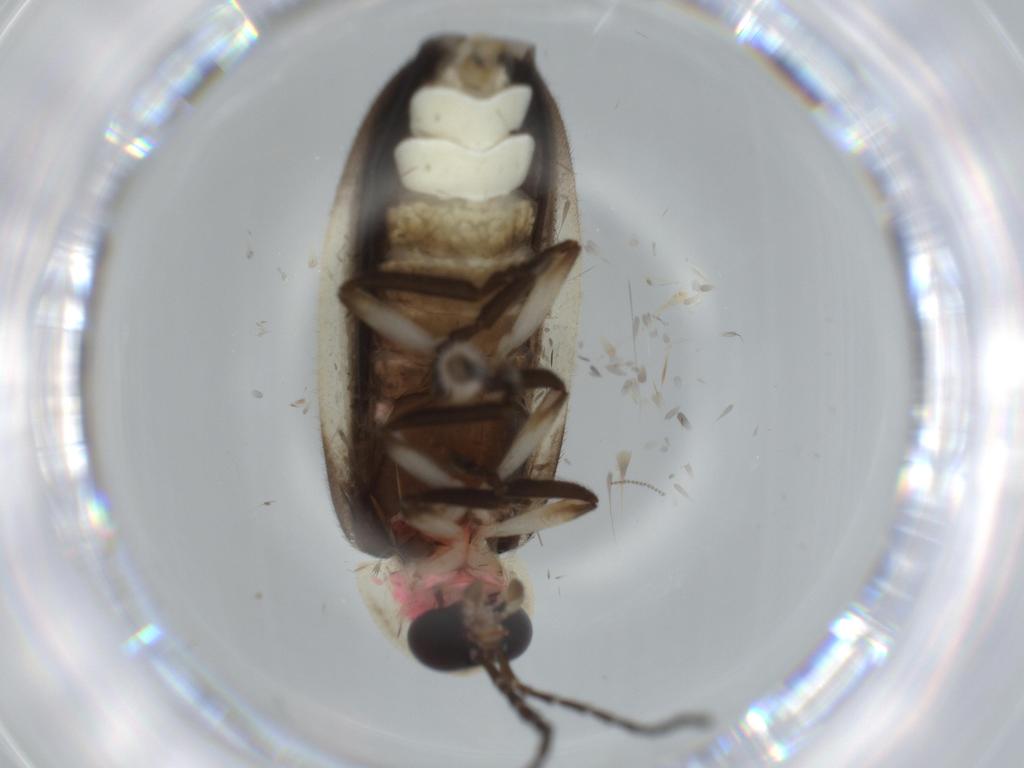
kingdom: Animalia
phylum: Arthropoda
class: Insecta
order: Coleoptera
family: Lampyridae
